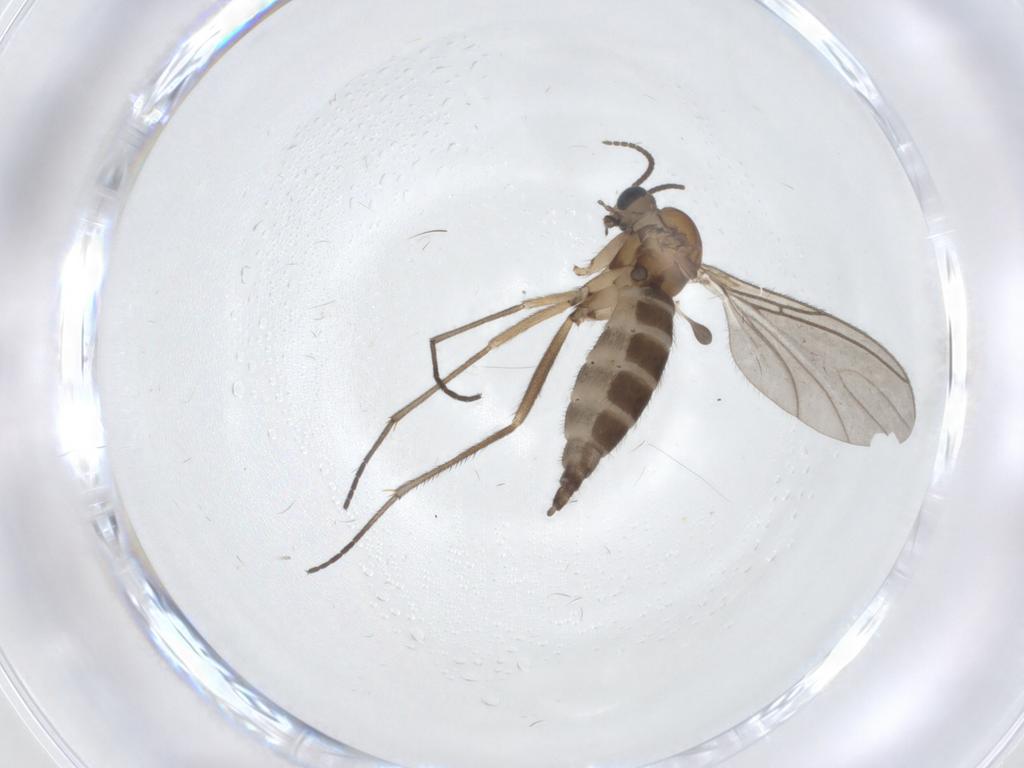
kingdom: Animalia
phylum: Arthropoda
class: Insecta
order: Diptera
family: Sciaridae
